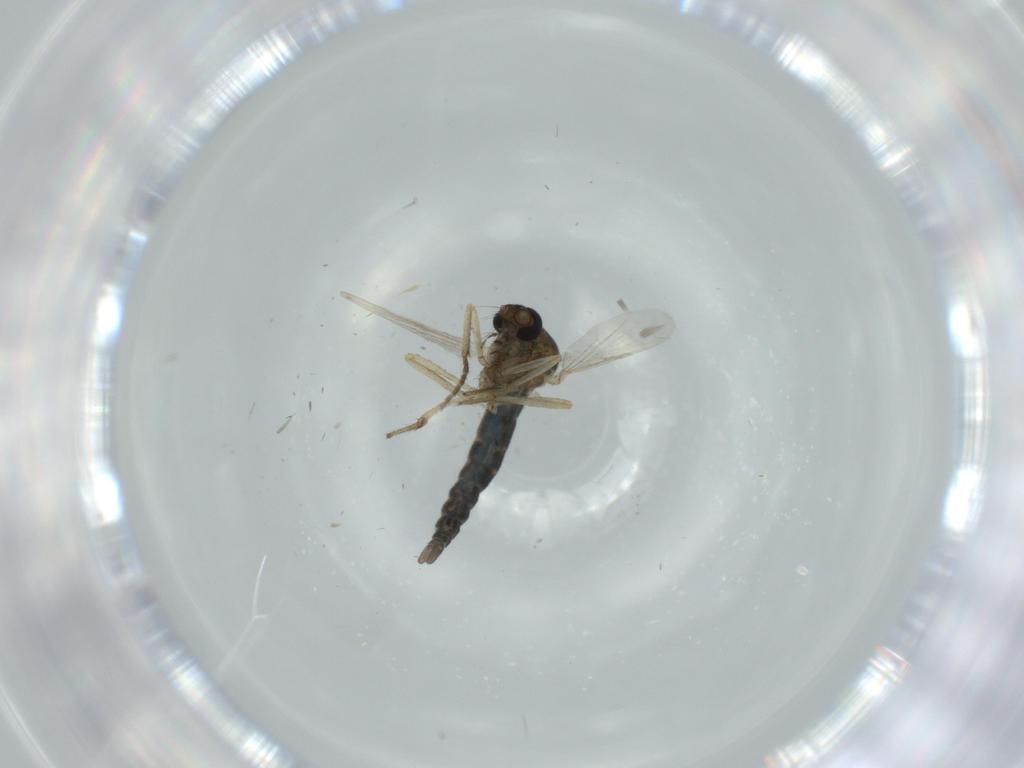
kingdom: Animalia
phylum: Arthropoda
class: Insecta
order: Diptera
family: Ceratopogonidae
